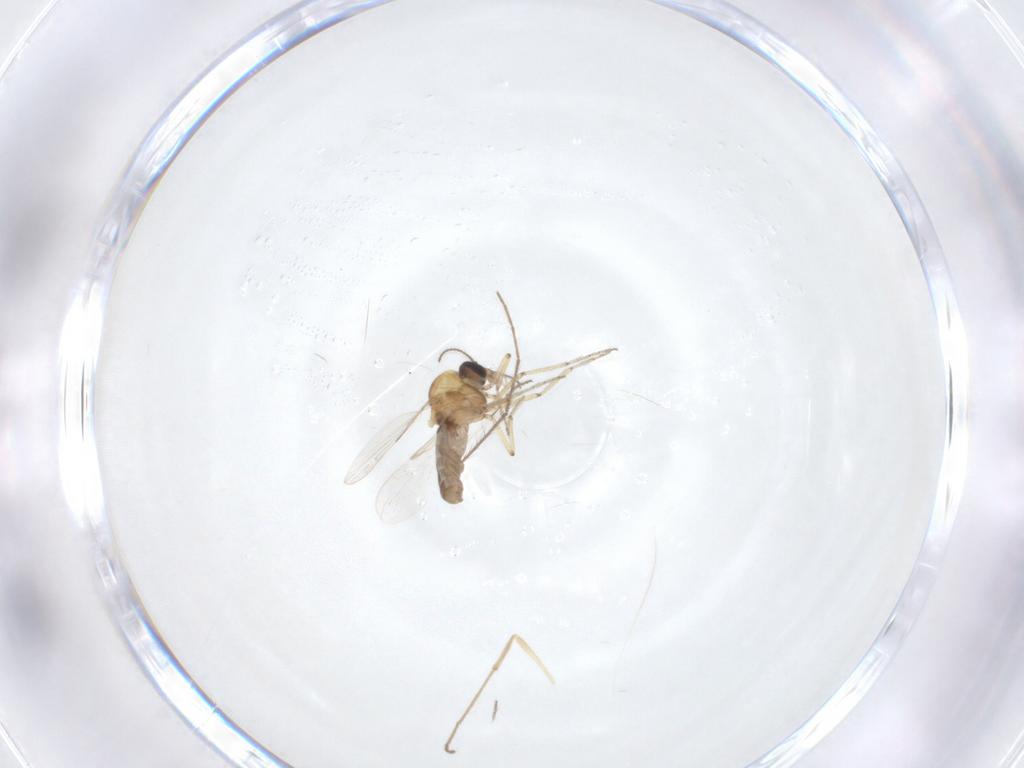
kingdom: Animalia
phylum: Arthropoda
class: Insecta
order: Diptera
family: Chironomidae
